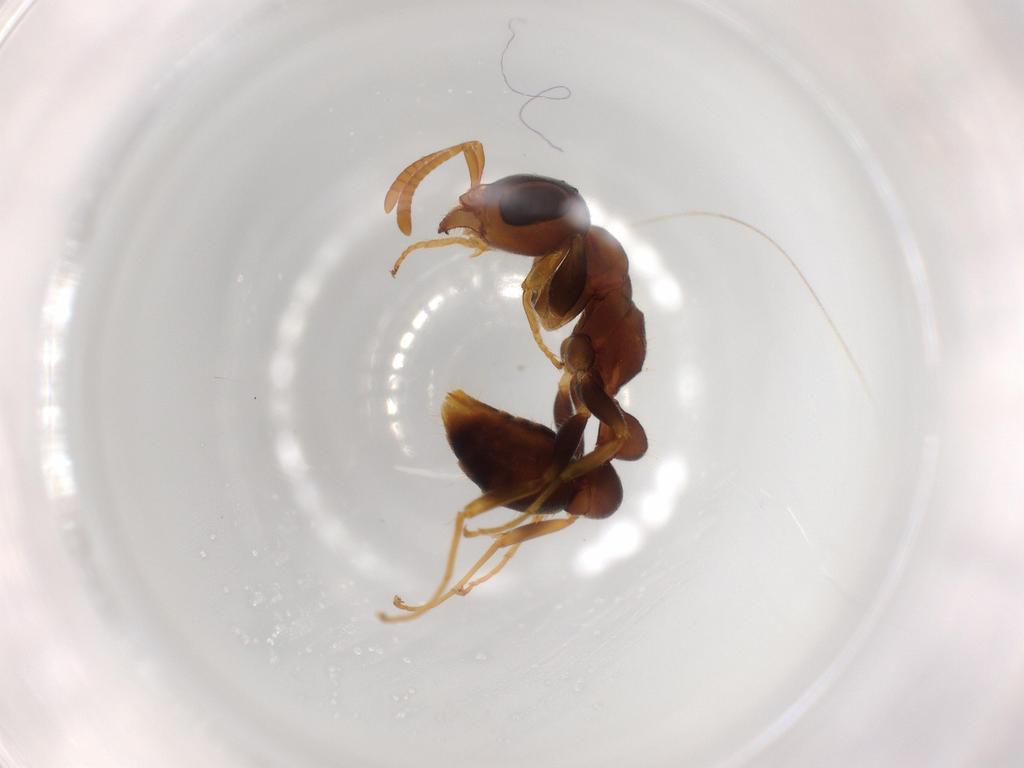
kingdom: Animalia
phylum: Arthropoda
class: Insecta
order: Hymenoptera
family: Formicidae
